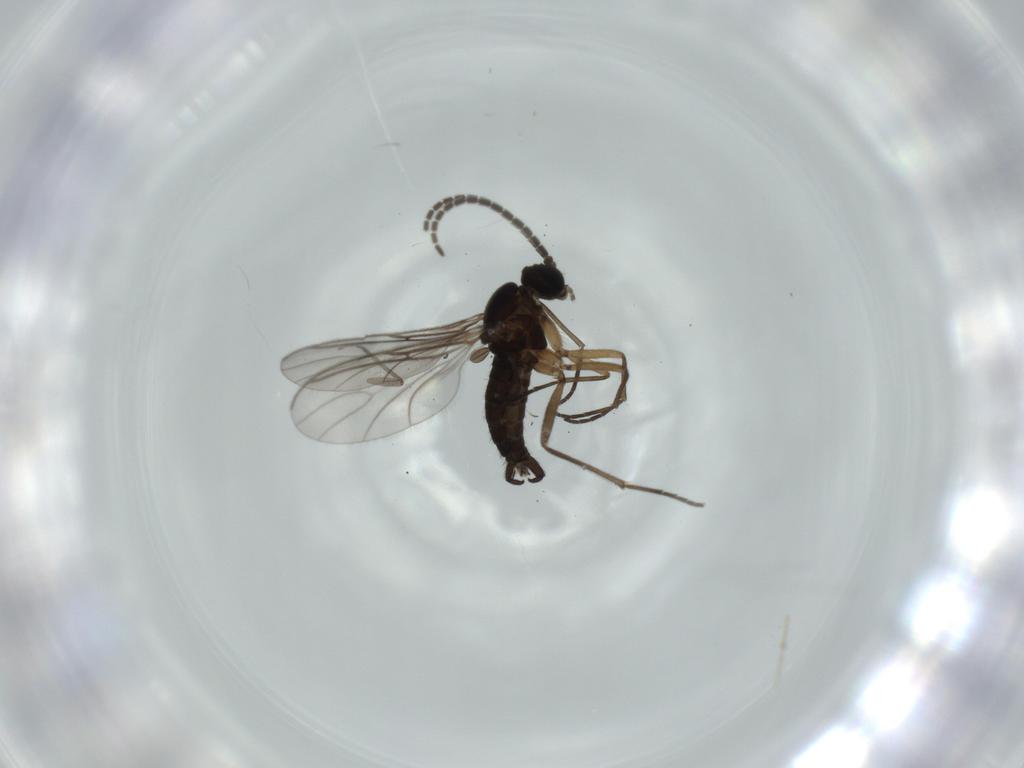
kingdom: Animalia
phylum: Arthropoda
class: Insecta
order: Diptera
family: Sciaridae
